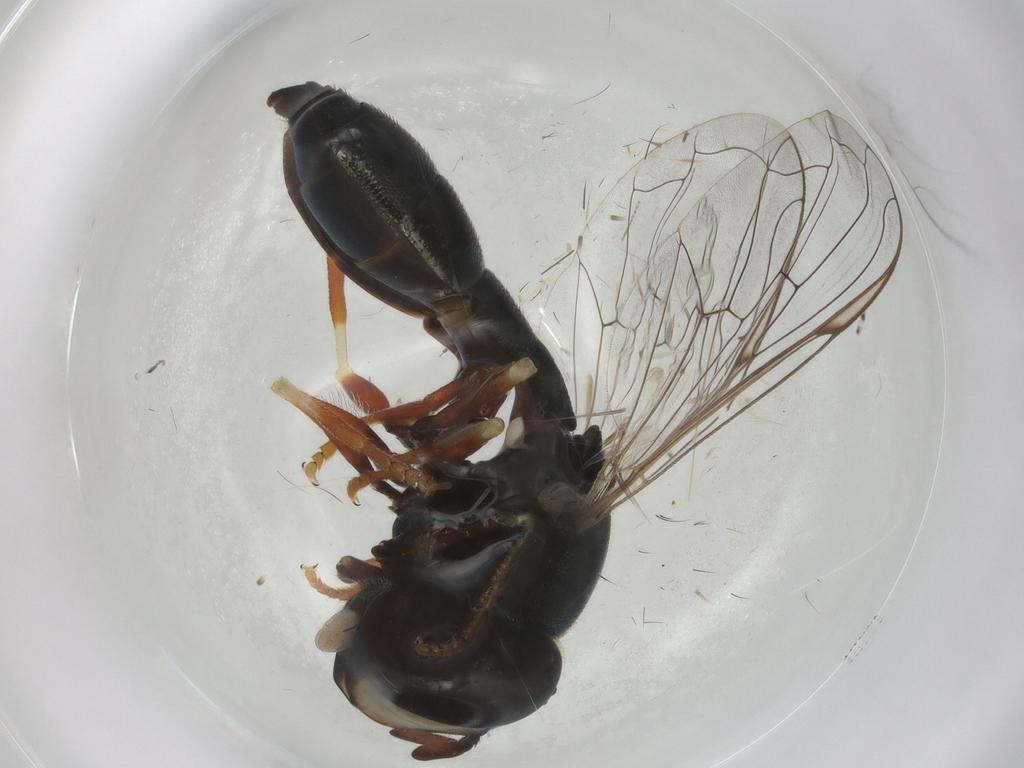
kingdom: Animalia
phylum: Arthropoda
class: Insecta
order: Diptera
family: Syrphidae
